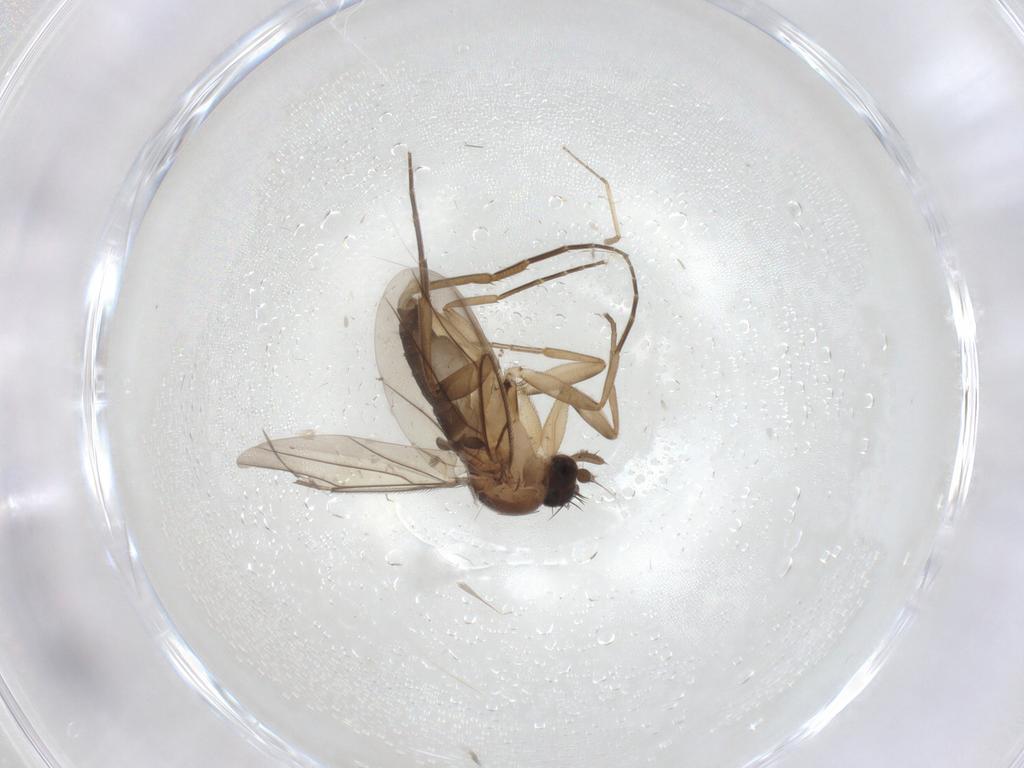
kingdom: Animalia
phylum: Arthropoda
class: Insecta
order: Diptera
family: Phoridae
